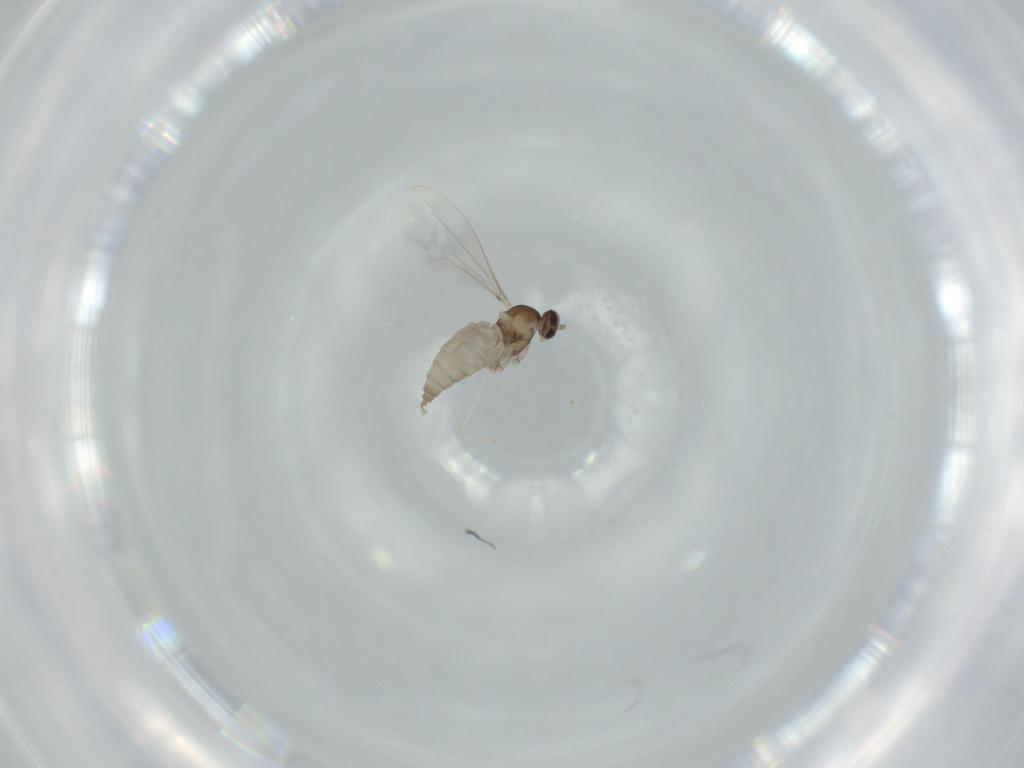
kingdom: Animalia
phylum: Arthropoda
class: Insecta
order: Diptera
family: Cecidomyiidae
